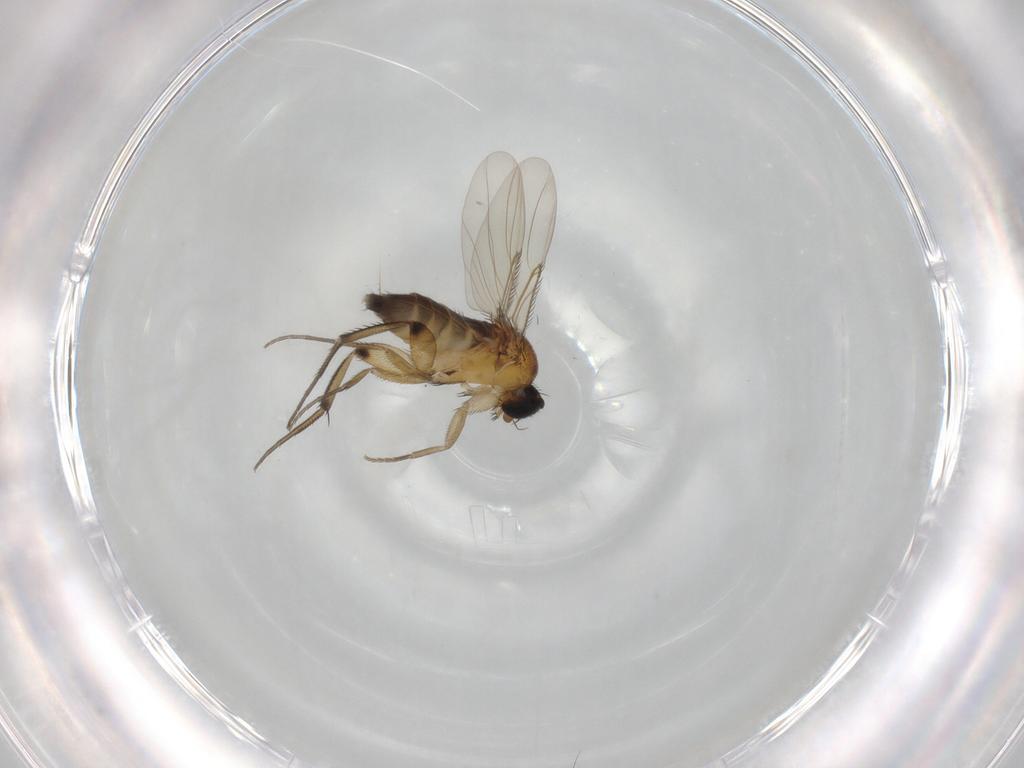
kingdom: Animalia
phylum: Arthropoda
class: Insecta
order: Diptera
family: Phoridae
